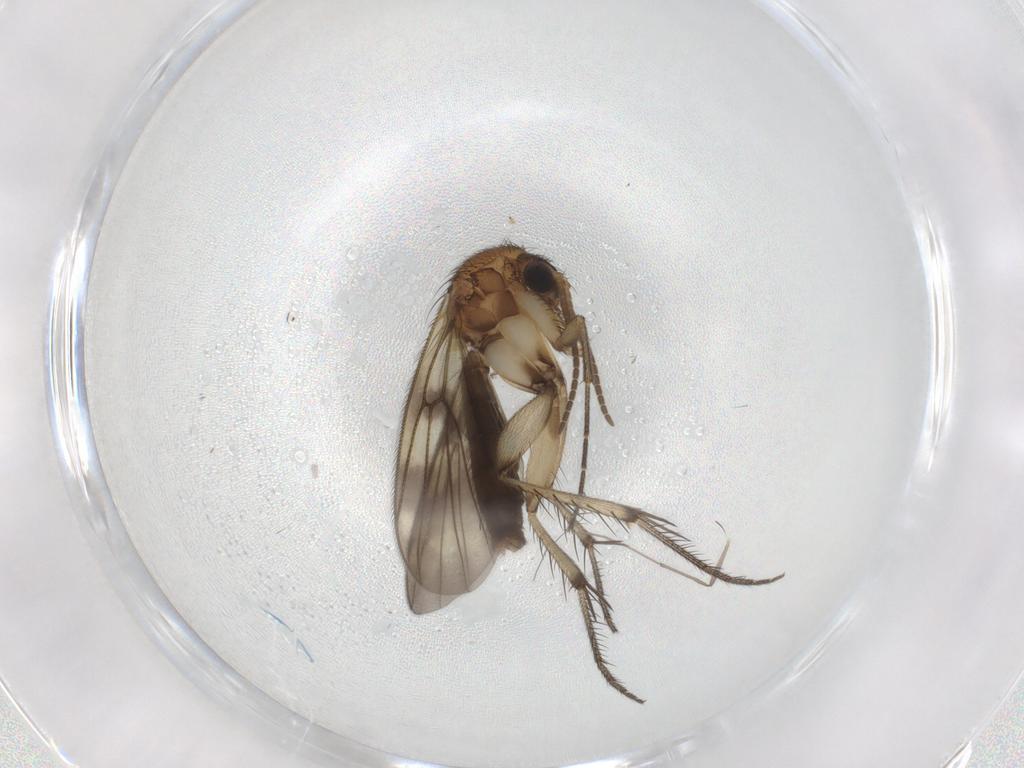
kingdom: Animalia
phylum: Arthropoda
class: Insecta
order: Diptera
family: Mycetophilidae
